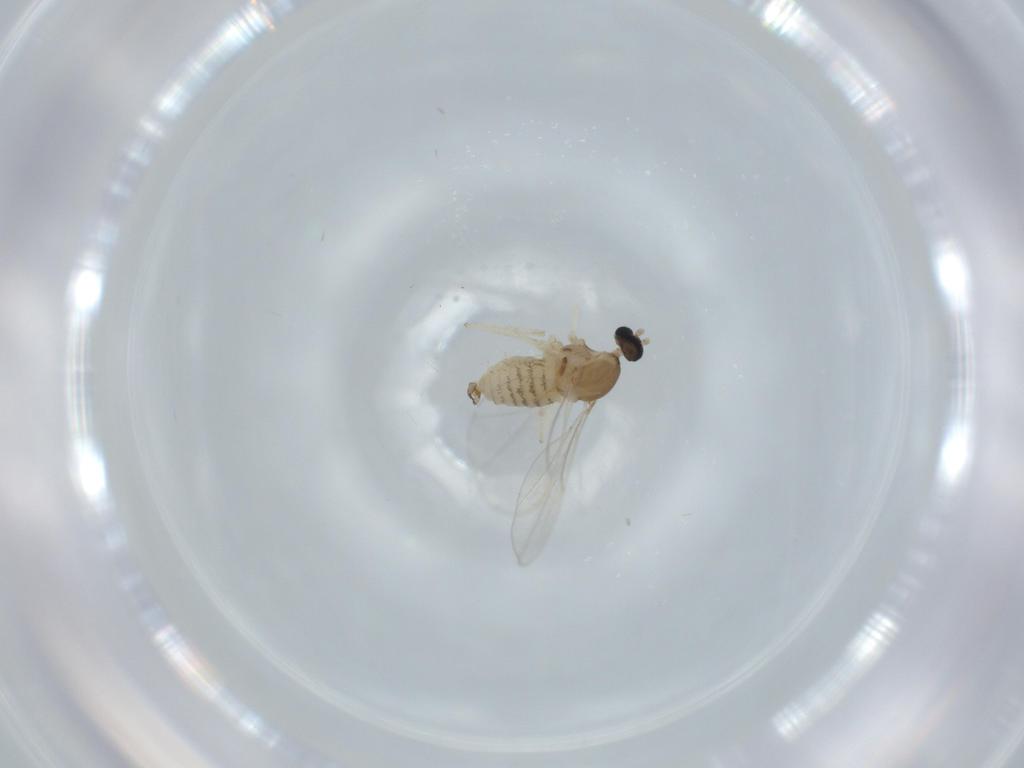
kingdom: Animalia
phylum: Arthropoda
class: Insecta
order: Diptera
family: Cecidomyiidae
